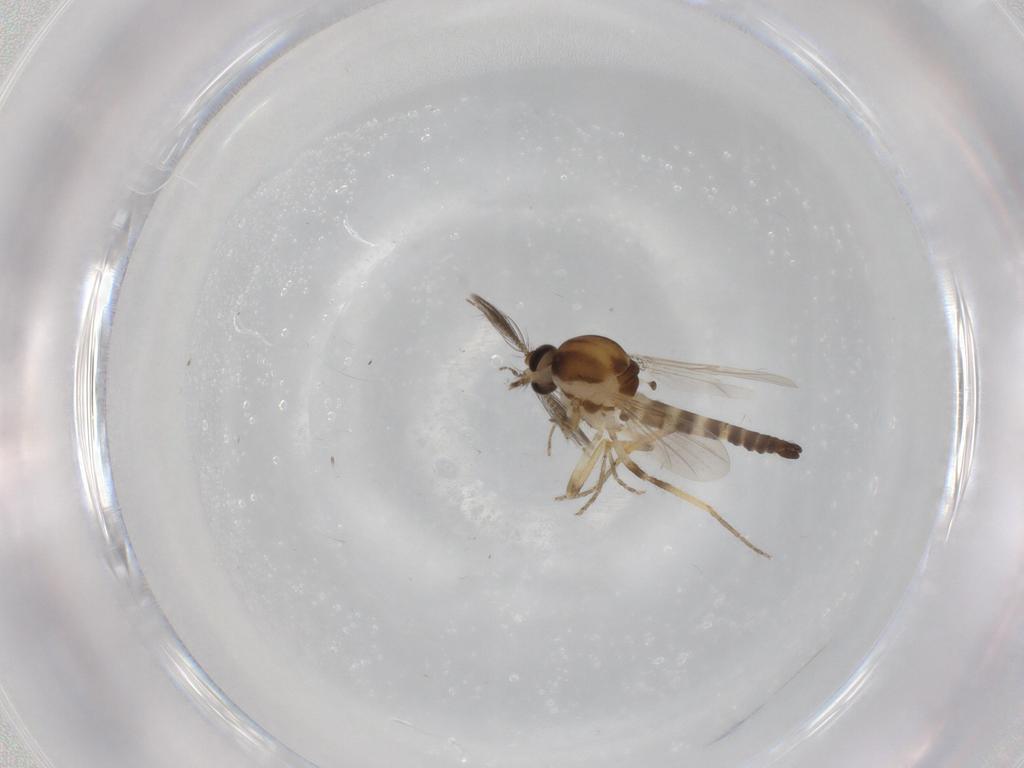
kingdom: Animalia
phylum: Arthropoda
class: Insecta
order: Diptera
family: Ceratopogonidae
